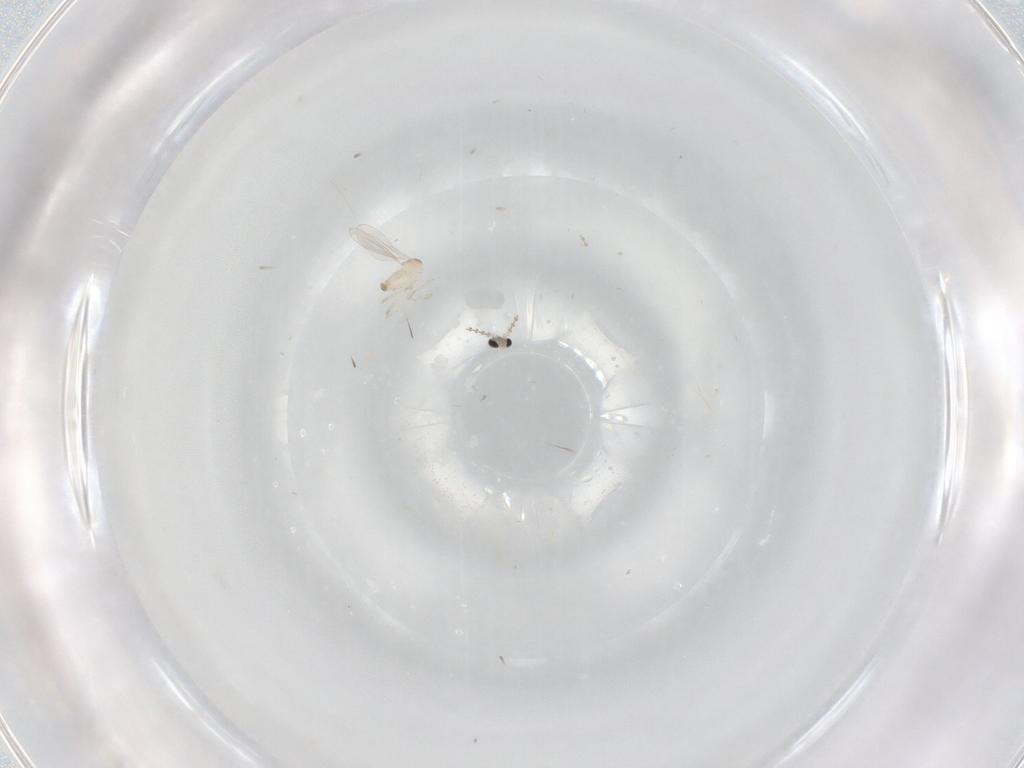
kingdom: Animalia
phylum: Arthropoda
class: Insecta
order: Diptera
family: Cecidomyiidae
